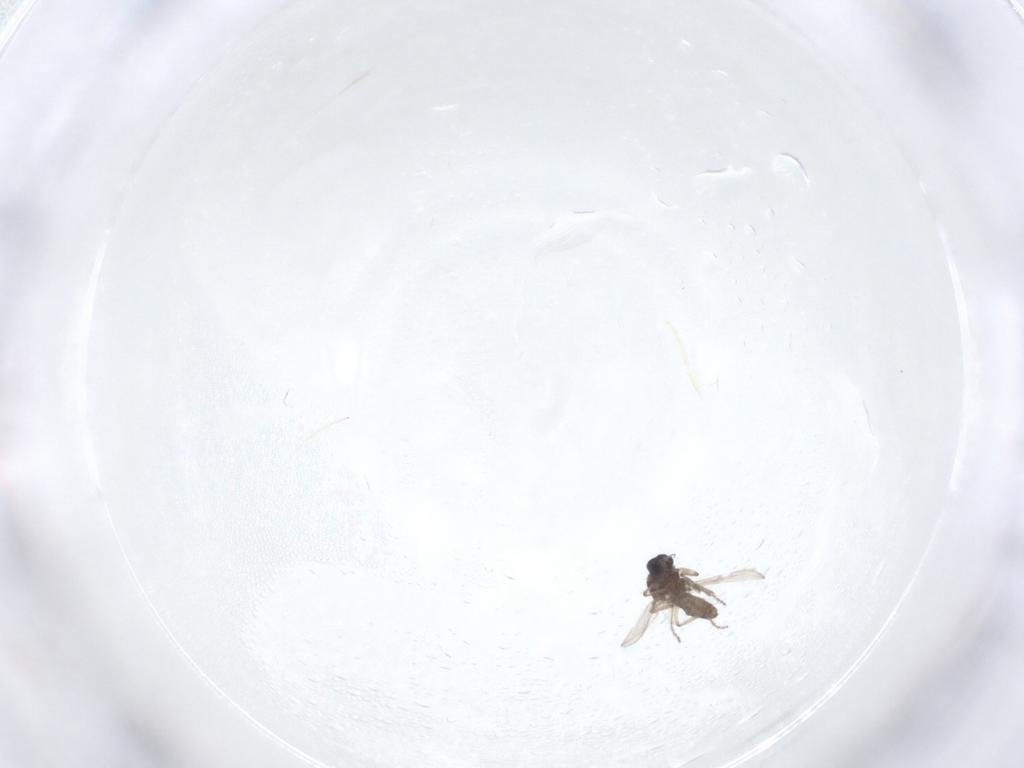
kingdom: Animalia
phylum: Arthropoda
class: Insecta
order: Diptera
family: Ceratopogonidae
